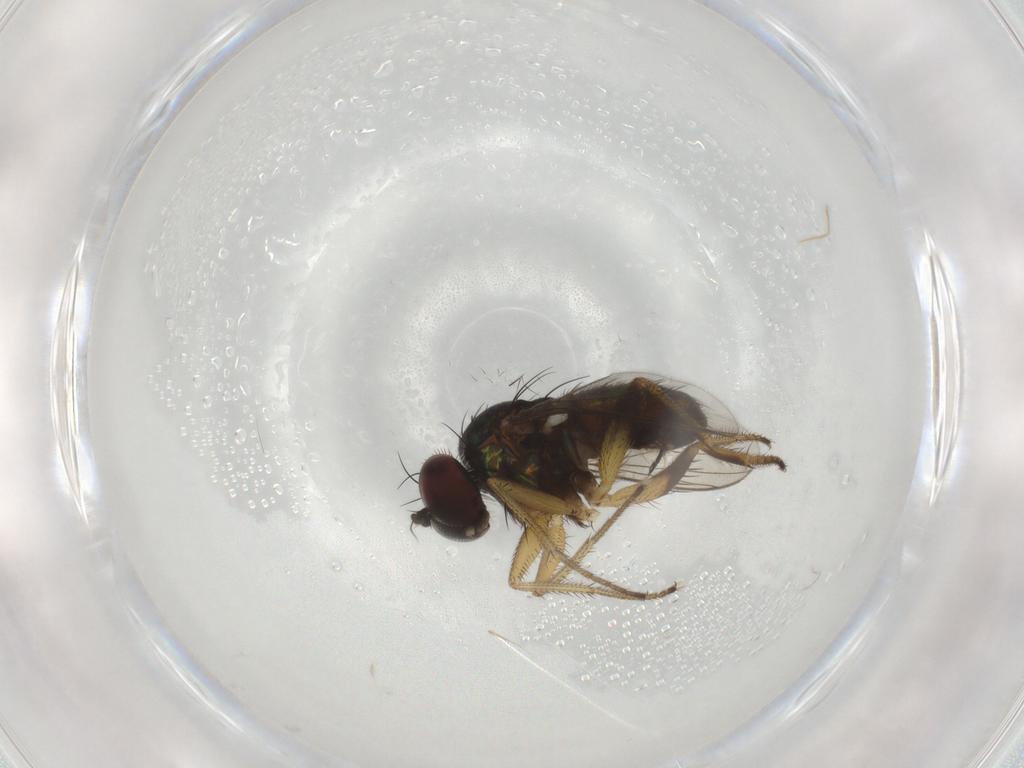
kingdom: Animalia
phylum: Arthropoda
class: Insecta
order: Diptera
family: Dolichopodidae
